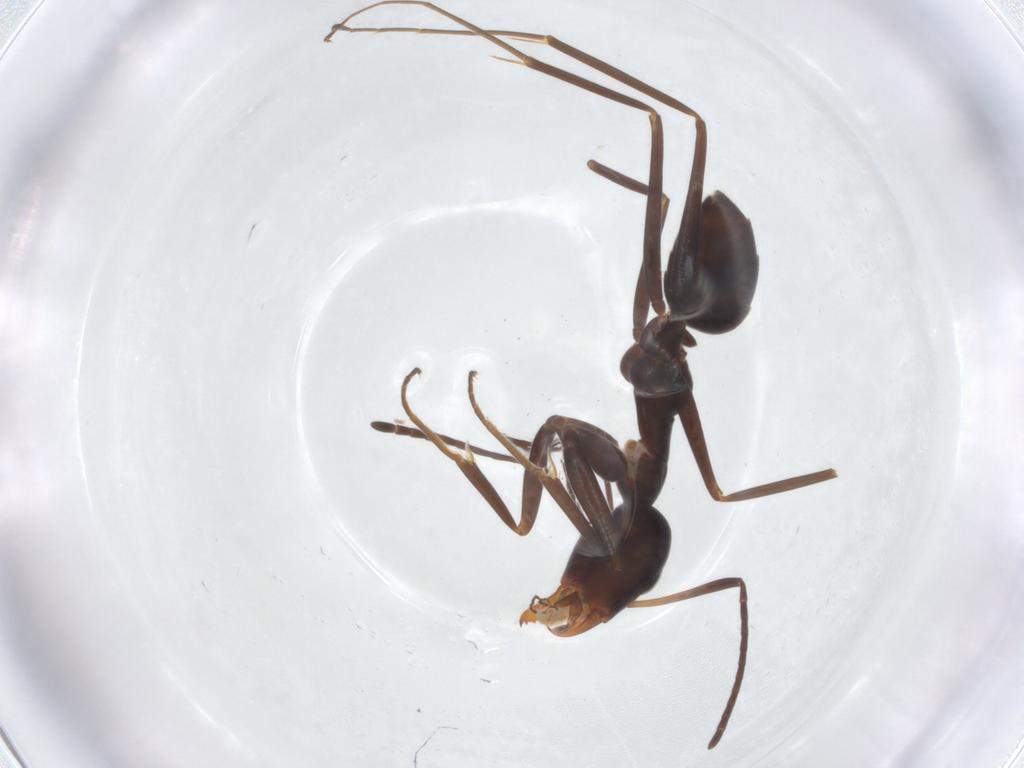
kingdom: Animalia
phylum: Arthropoda
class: Insecta
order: Hymenoptera
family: Formicidae
